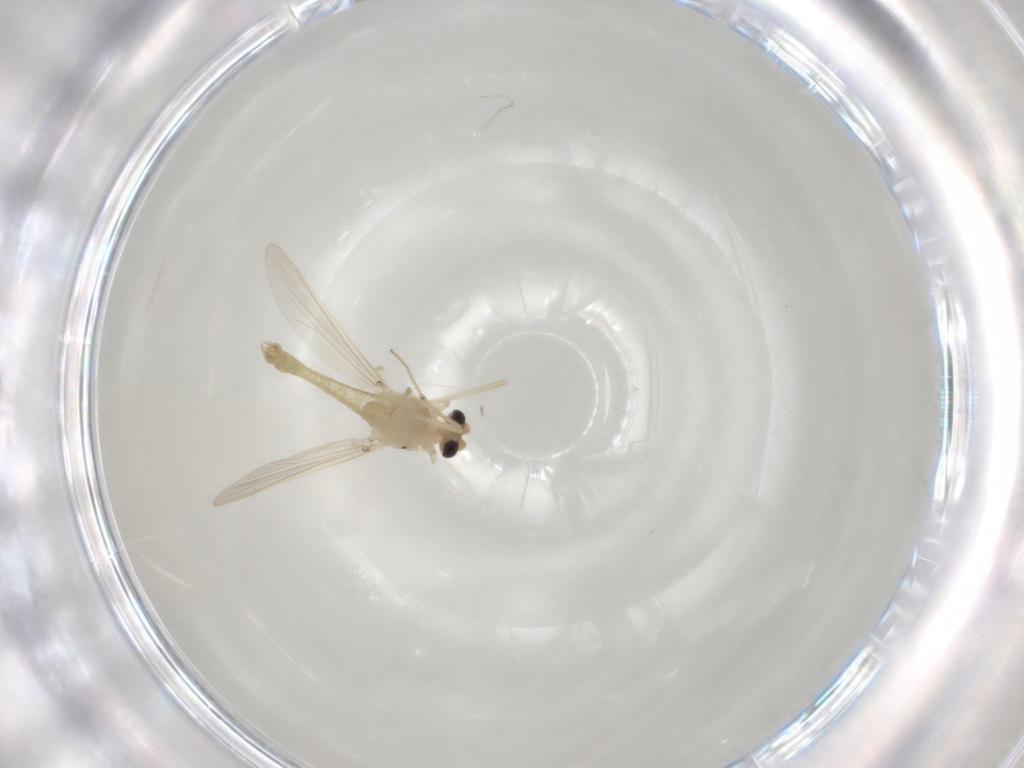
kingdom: Animalia
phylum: Arthropoda
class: Insecta
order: Diptera
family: Chironomidae
